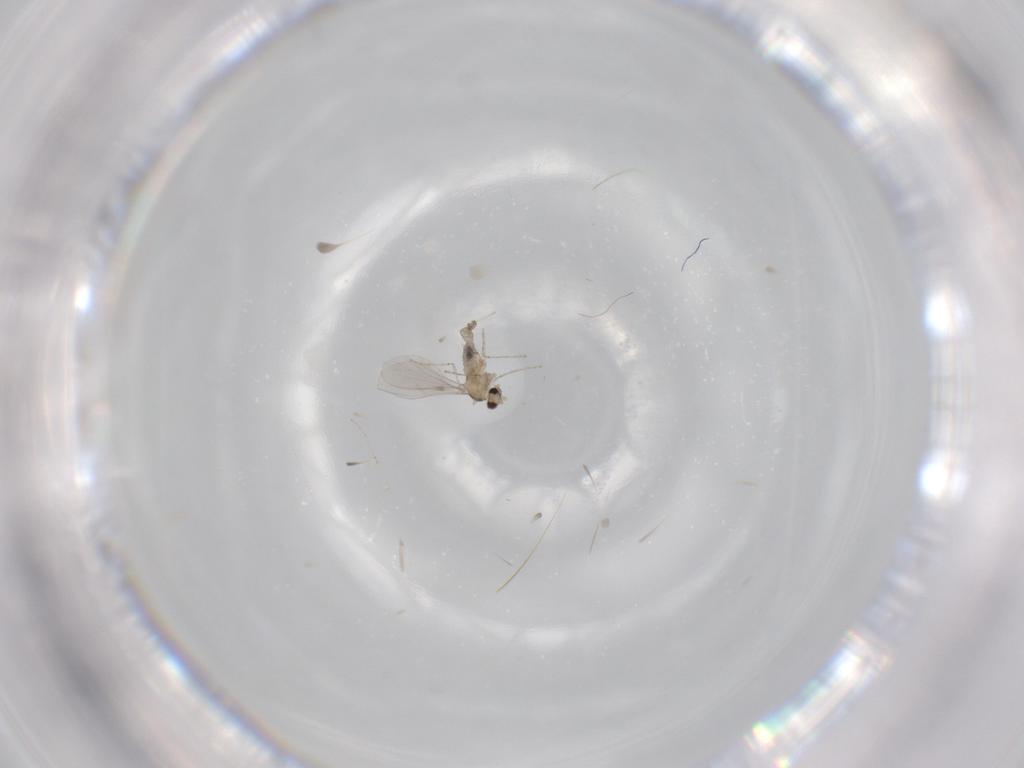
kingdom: Animalia
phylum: Arthropoda
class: Insecta
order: Diptera
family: Cecidomyiidae
